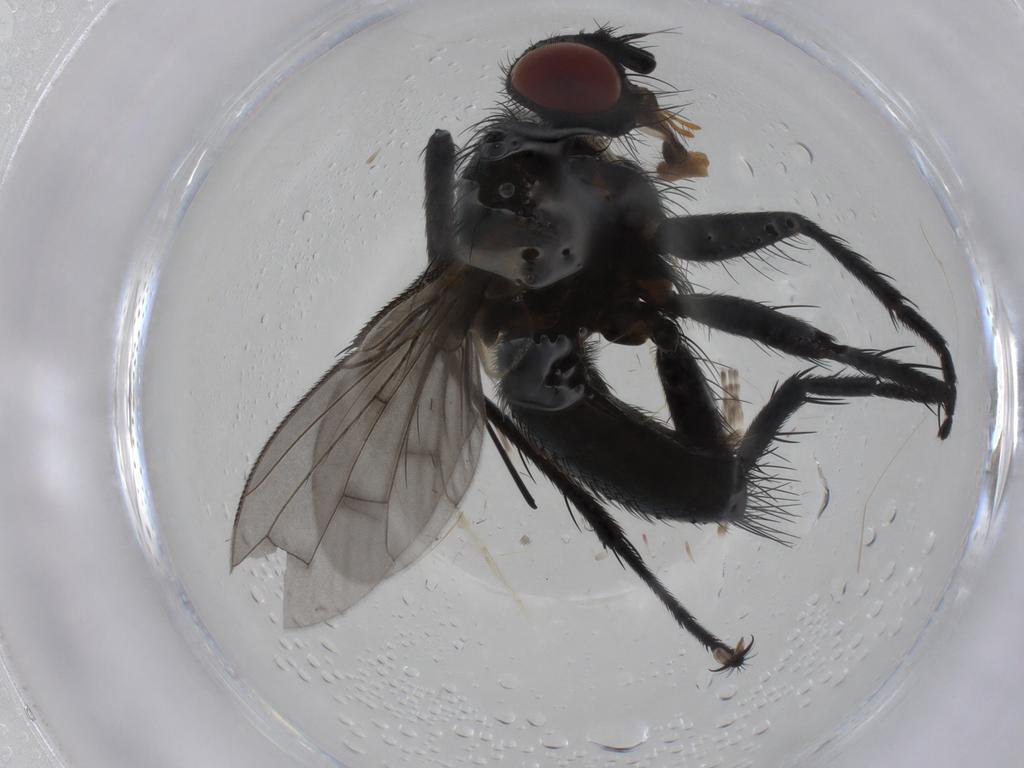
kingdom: Animalia
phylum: Arthropoda
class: Insecta
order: Diptera
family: Tachinidae
